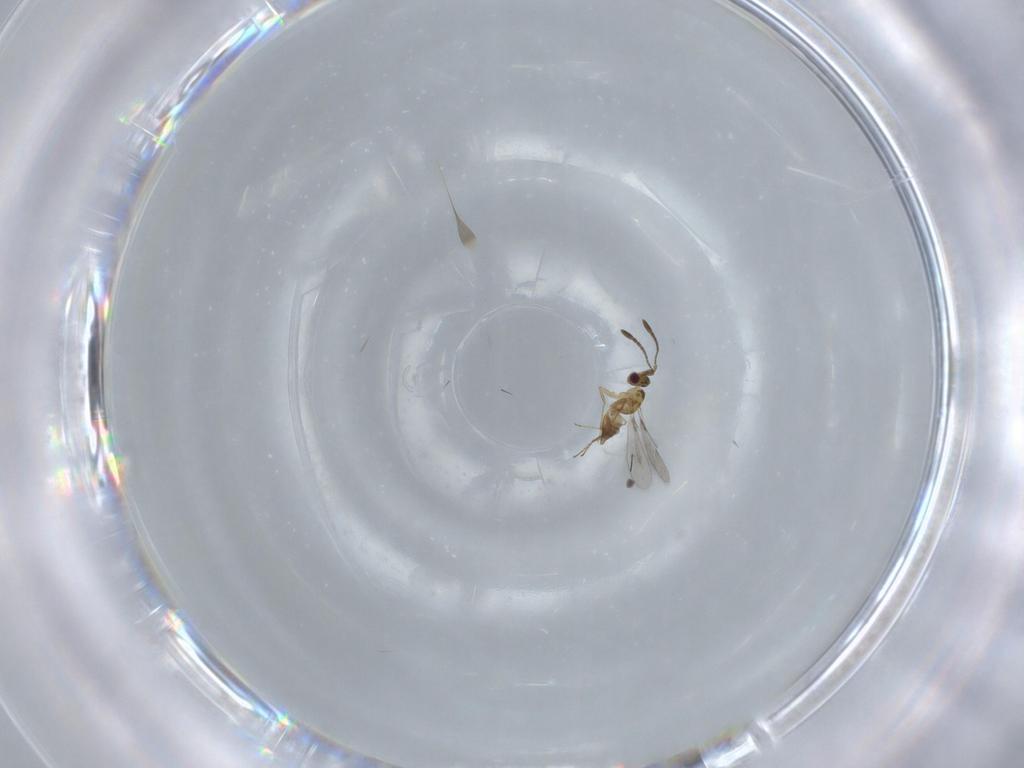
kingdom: Animalia
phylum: Arthropoda
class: Insecta
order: Hymenoptera
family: Mymaridae
